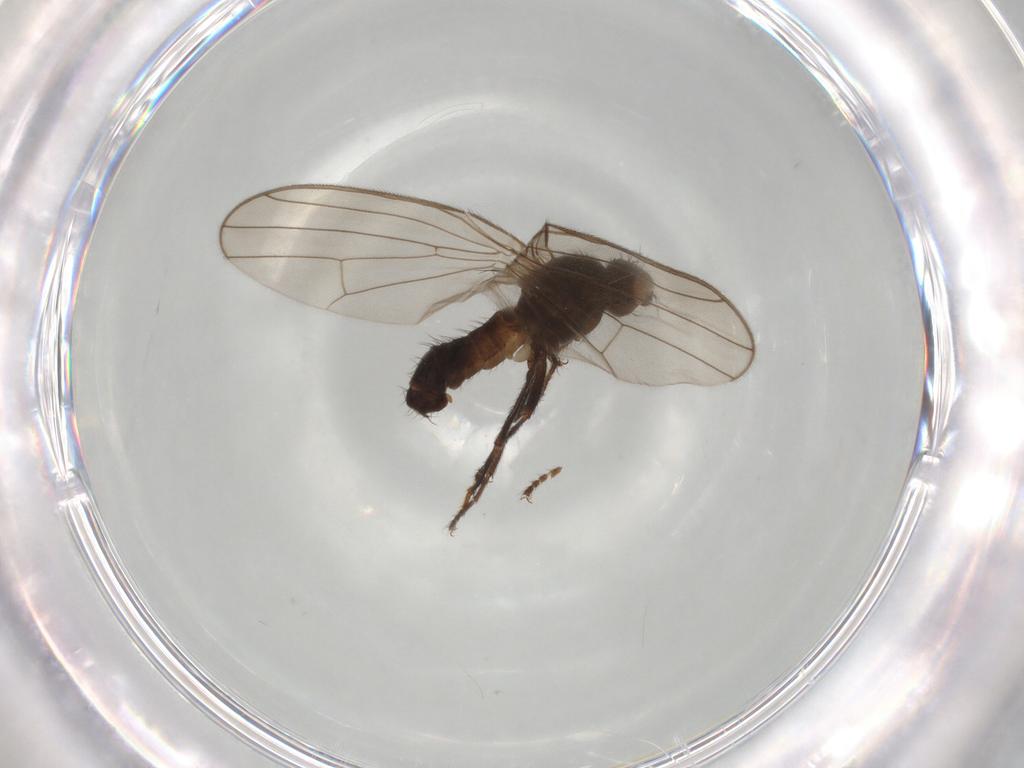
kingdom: Animalia
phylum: Arthropoda
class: Insecta
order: Diptera
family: Heleomyzidae
